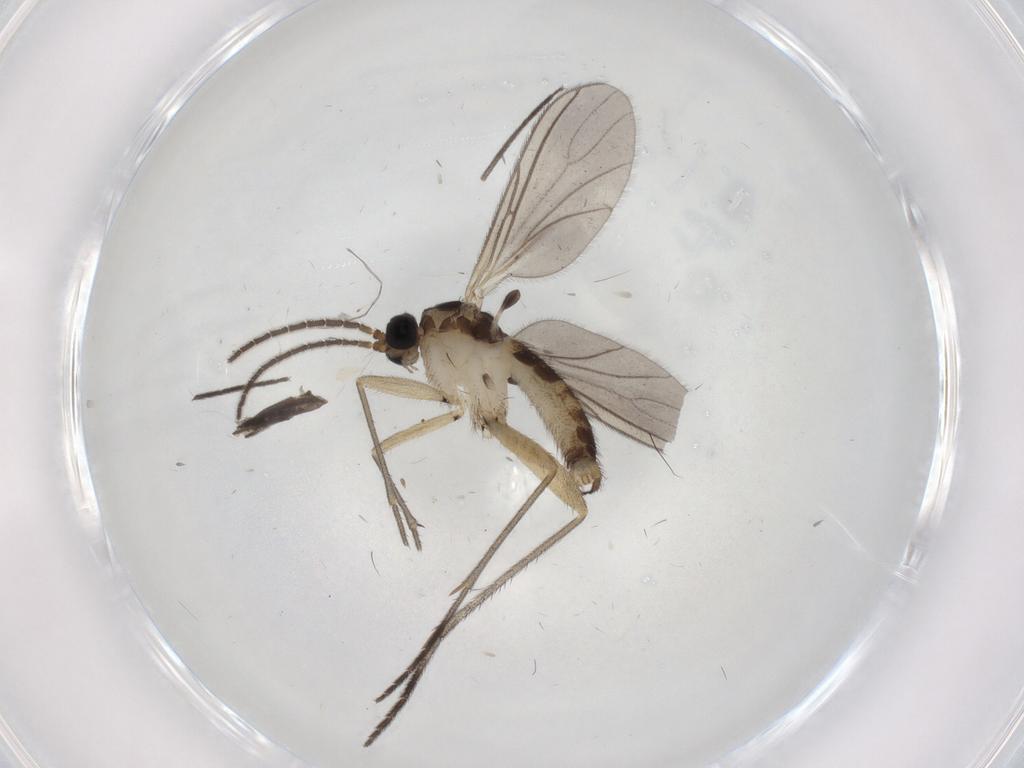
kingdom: Animalia
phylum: Arthropoda
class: Insecta
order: Diptera
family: Sciaridae
